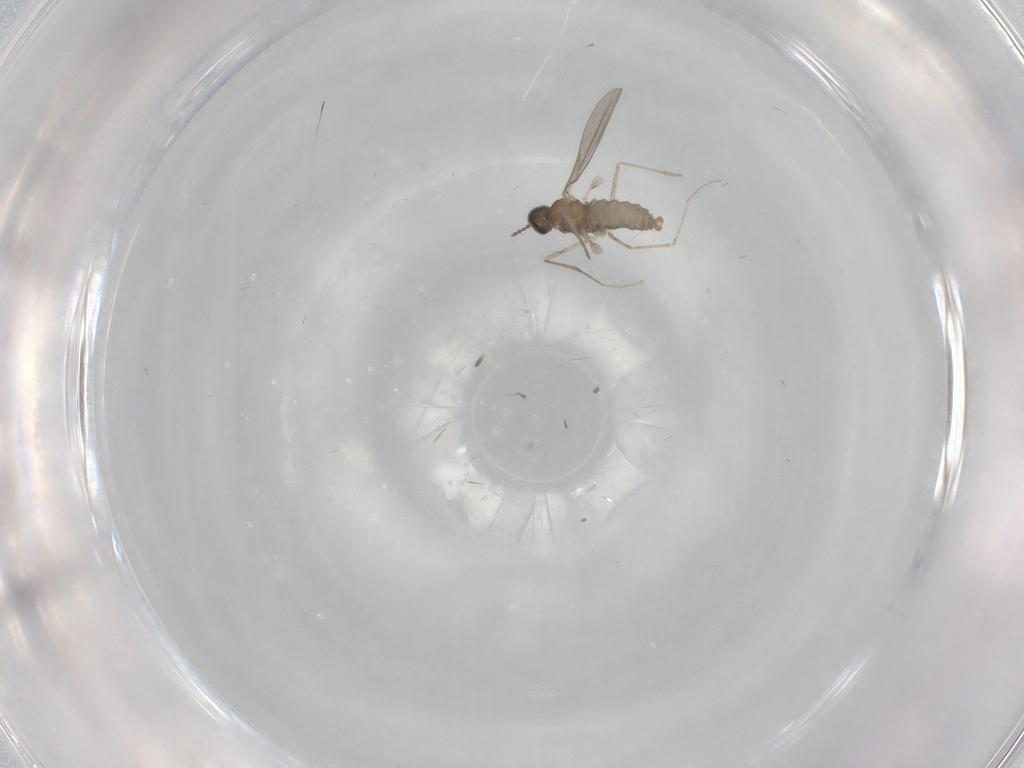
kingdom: Animalia
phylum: Arthropoda
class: Insecta
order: Diptera
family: Cecidomyiidae
